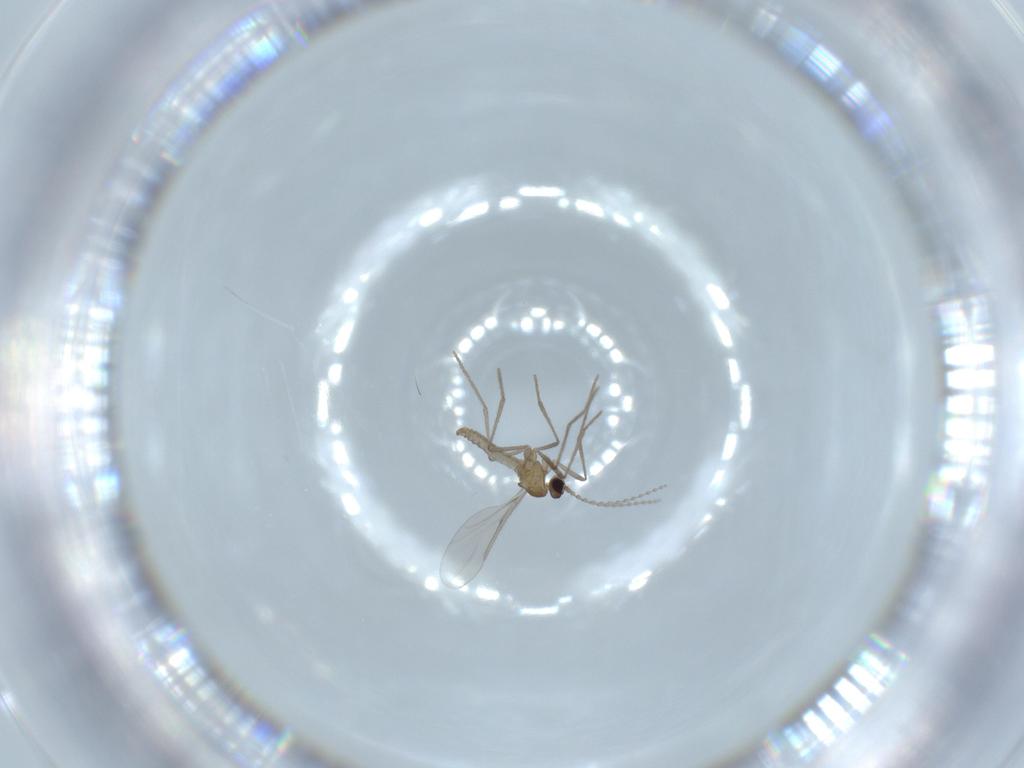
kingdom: Animalia
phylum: Arthropoda
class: Insecta
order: Diptera
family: Cecidomyiidae
